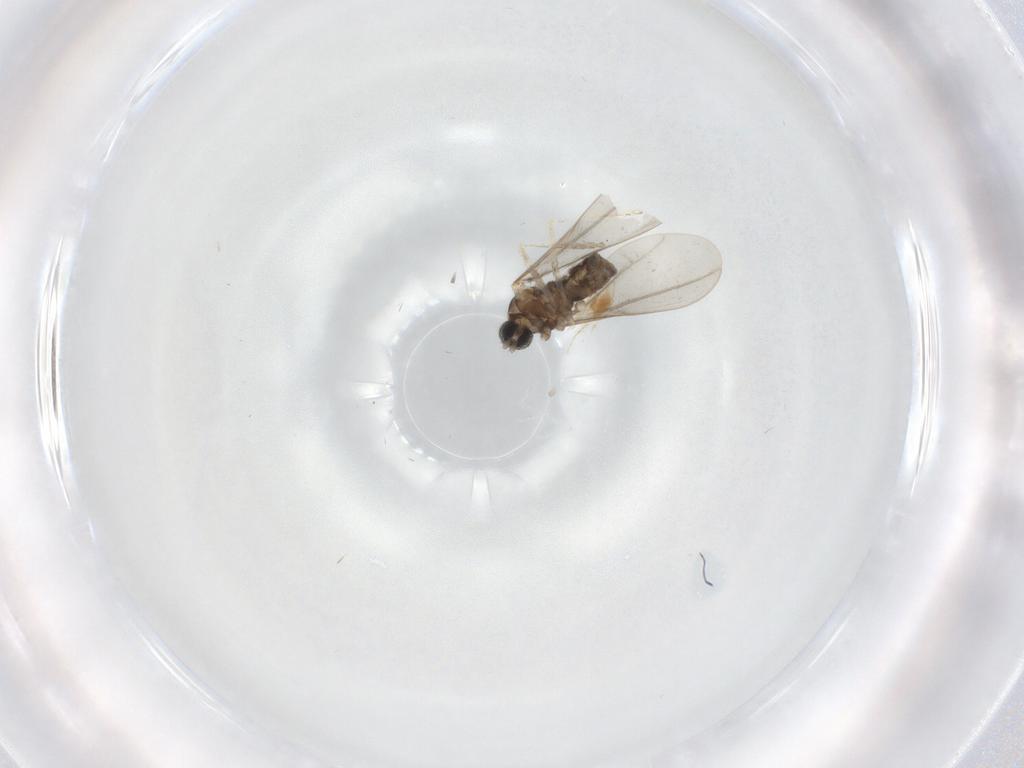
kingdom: Animalia
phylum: Arthropoda
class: Insecta
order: Diptera
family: Cecidomyiidae
